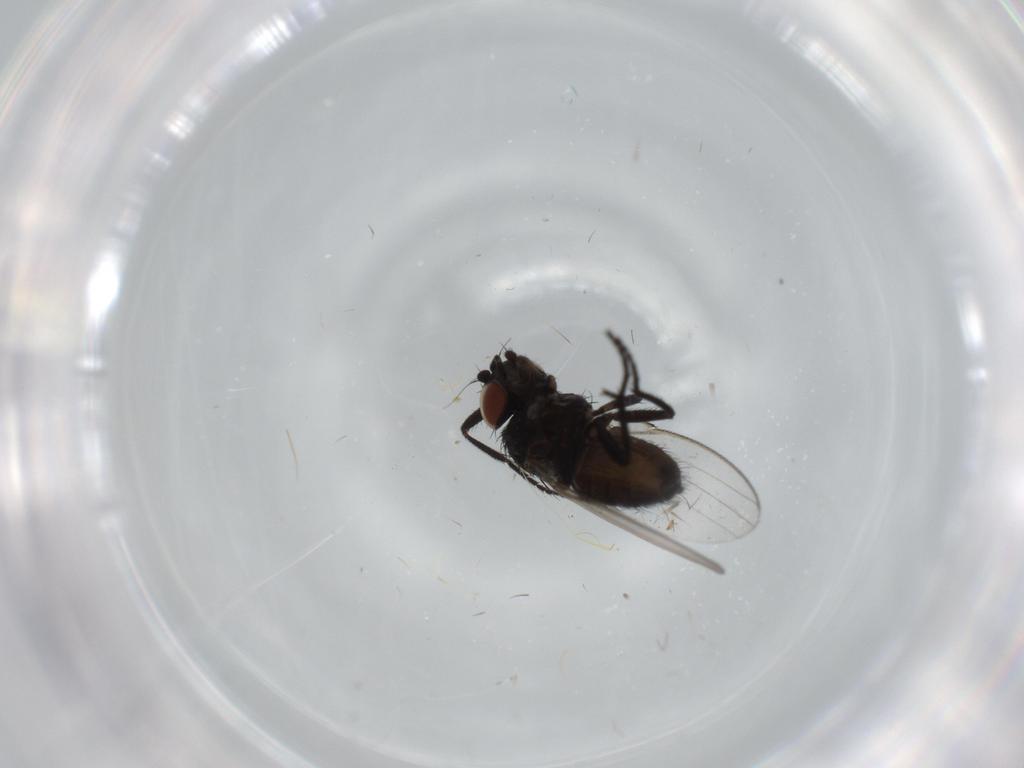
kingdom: Animalia
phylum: Arthropoda
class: Insecta
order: Diptera
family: Milichiidae
